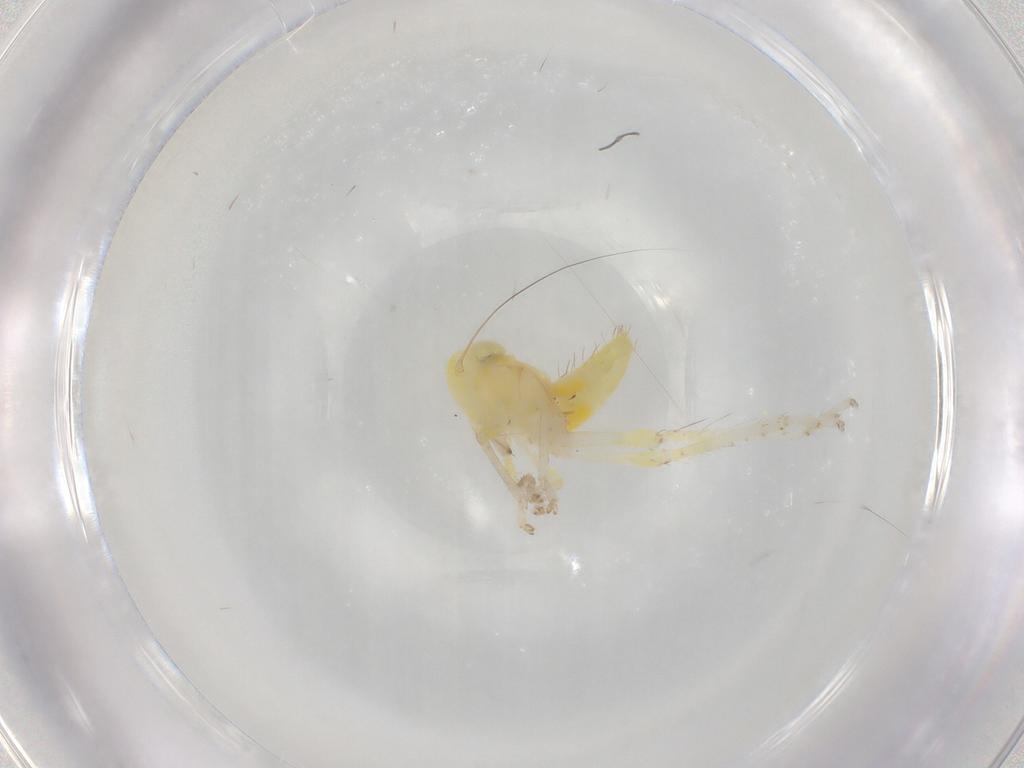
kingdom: Animalia
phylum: Arthropoda
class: Insecta
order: Hemiptera
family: Cicadellidae
